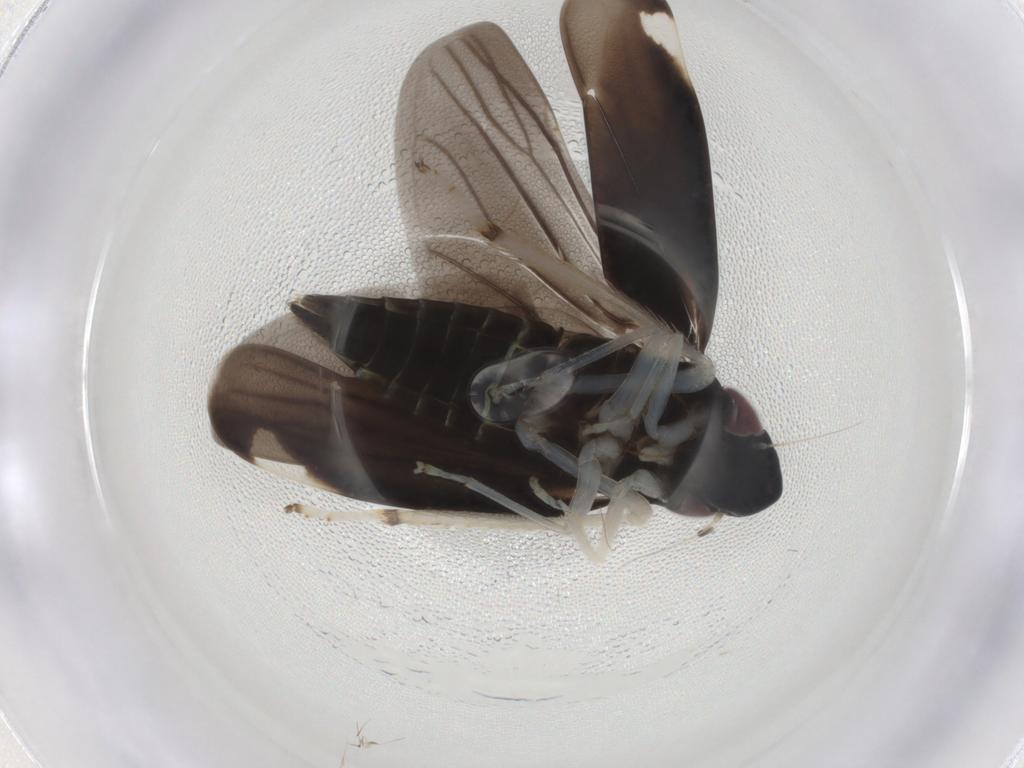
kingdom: Animalia
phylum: Arthropoda
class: Insecta
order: Hemiptera
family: Cicadellidae
